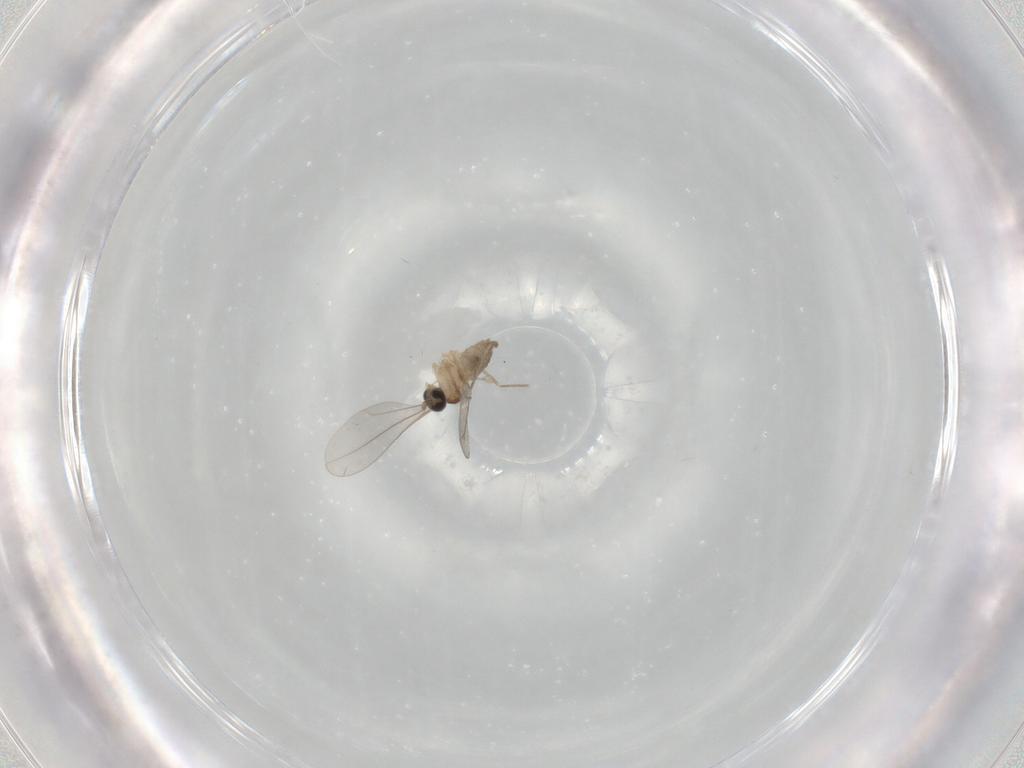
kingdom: Animalia
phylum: Arthropoda
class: Insecta
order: Diptera
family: Cecidomyiidae
